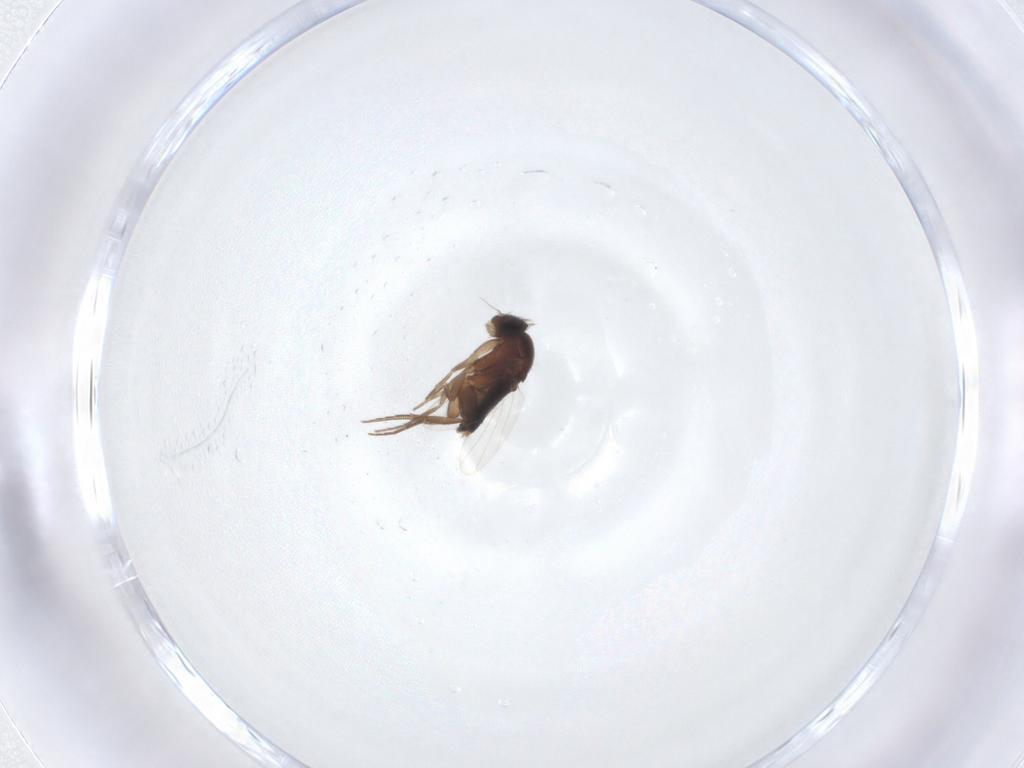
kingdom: Animalia
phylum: Arthropoda
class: Insecta
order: Diptera
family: Phoridae
